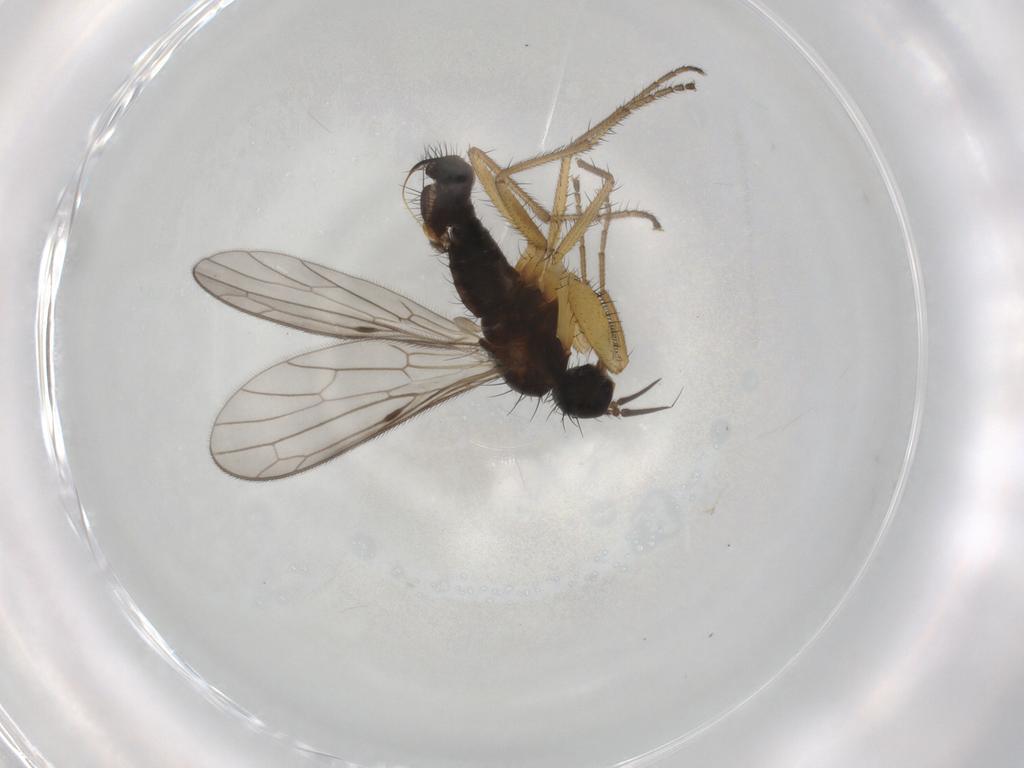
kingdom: Animalia
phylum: Arthropoda
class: Insecta
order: Diptera
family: Chironomidae
